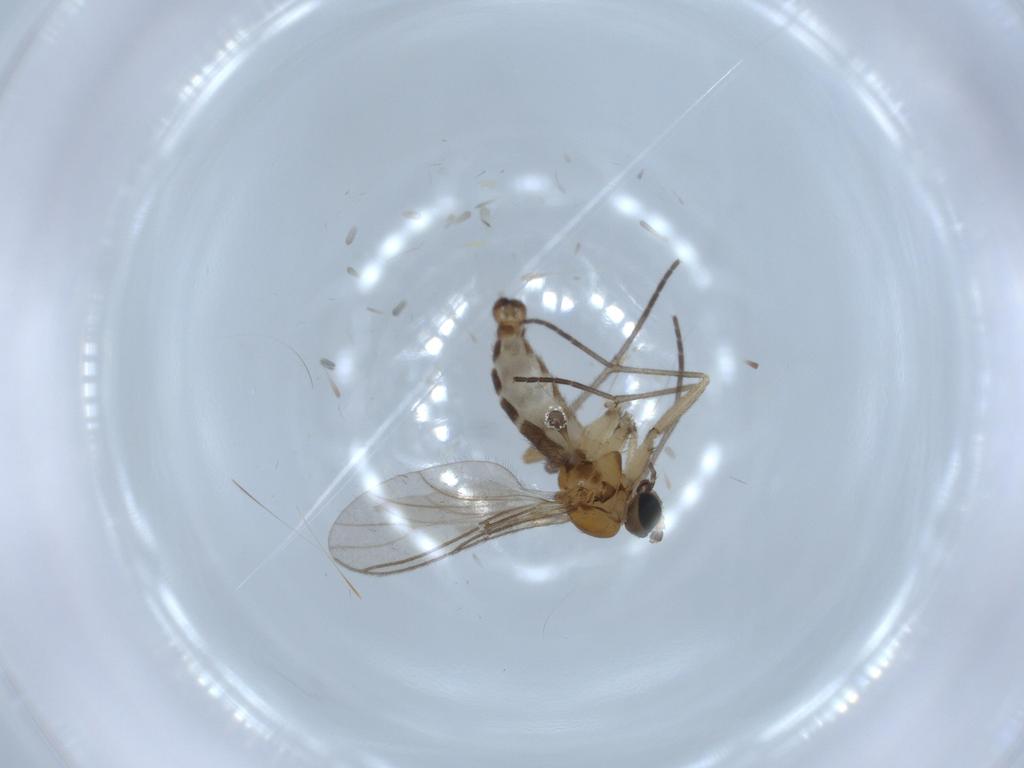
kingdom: Animalia
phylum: Arthropoda
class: Insecta
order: Diptera
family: Sciaridae
